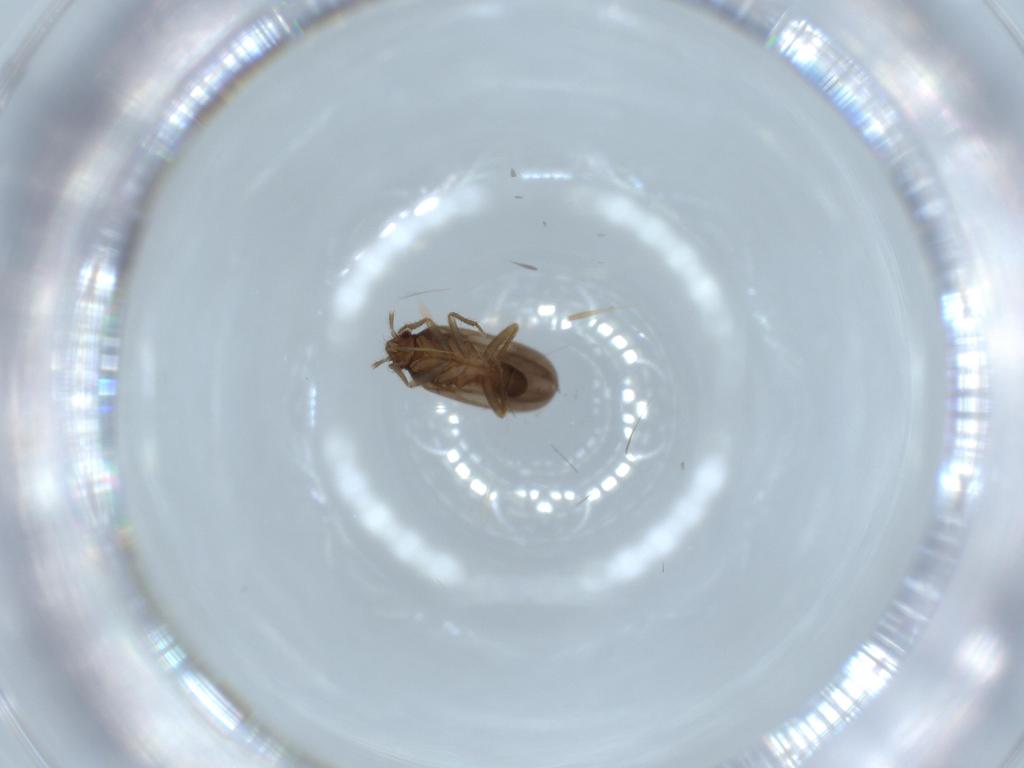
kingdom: Animalia
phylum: Arthropoda
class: Insecta
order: Hemiptera
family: Ceratocombidae
